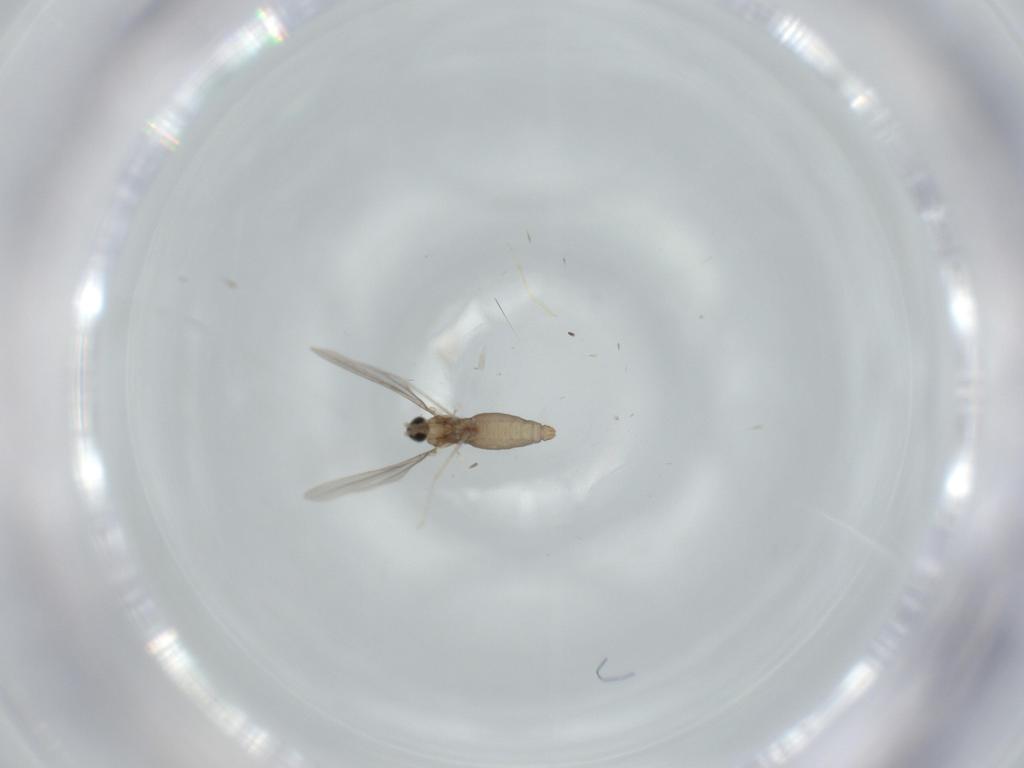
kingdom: Animalia
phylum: Arthropoda
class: Insecta
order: Diptera
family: Cecidomyiidae
